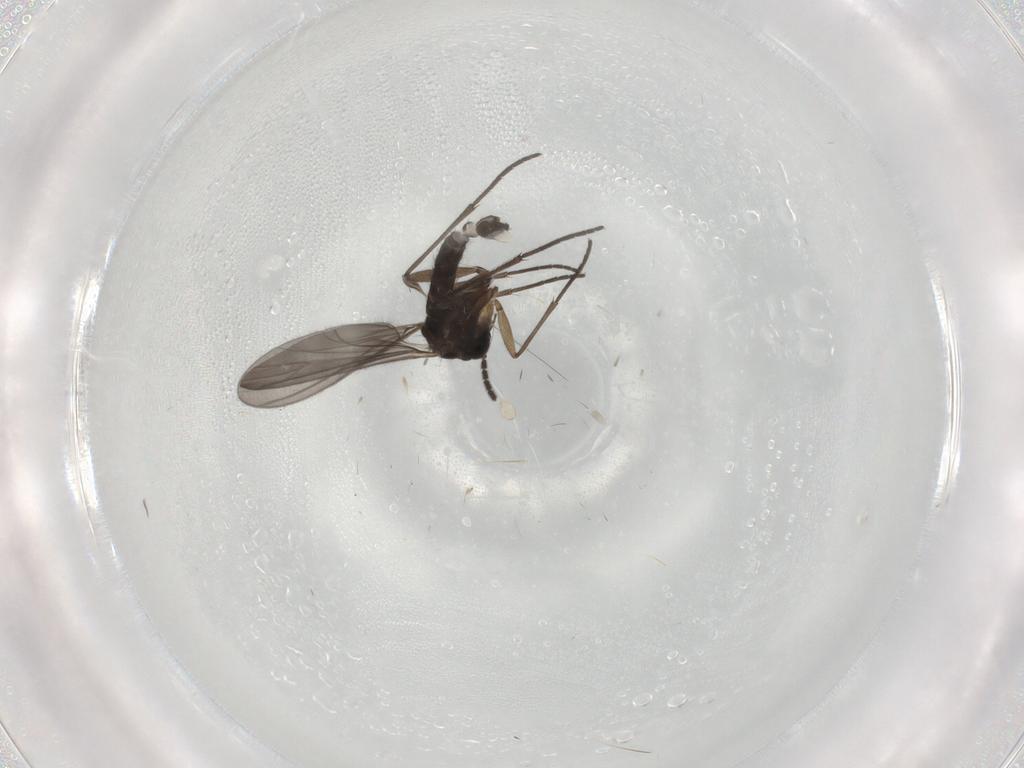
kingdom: Animalia
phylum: Arthropoda
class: Insecta
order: Diptera
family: Sciaridae
